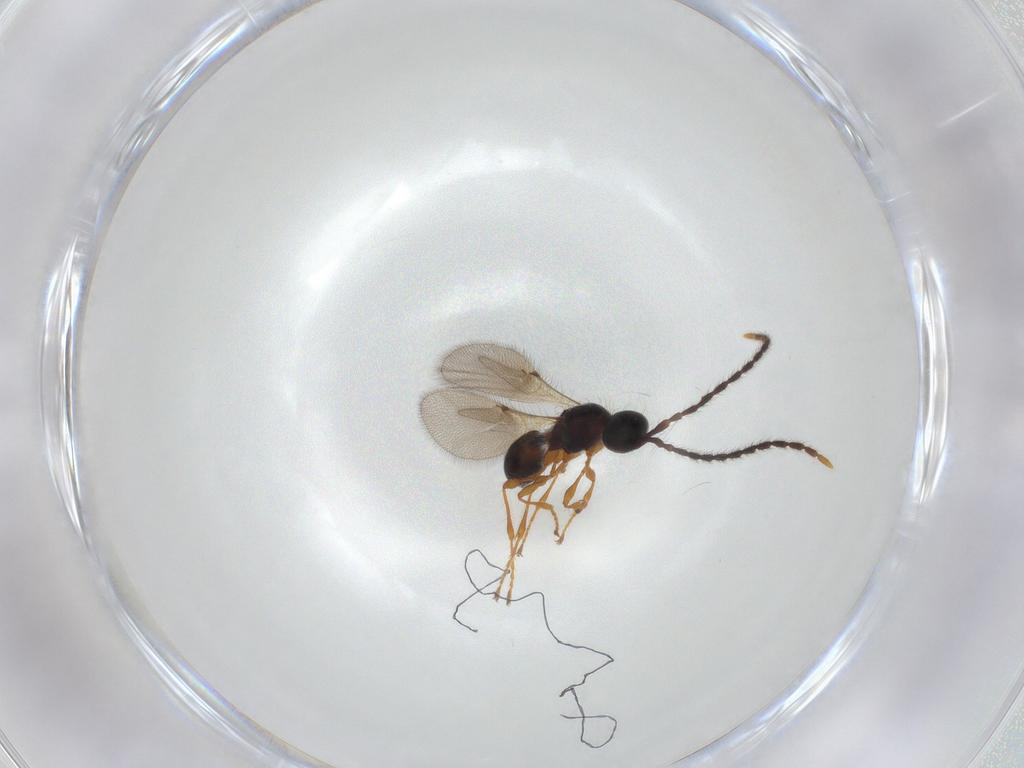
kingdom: Animalia
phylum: Arthropoda
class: Insecta
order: Hymenoptera
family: Diapriidae
